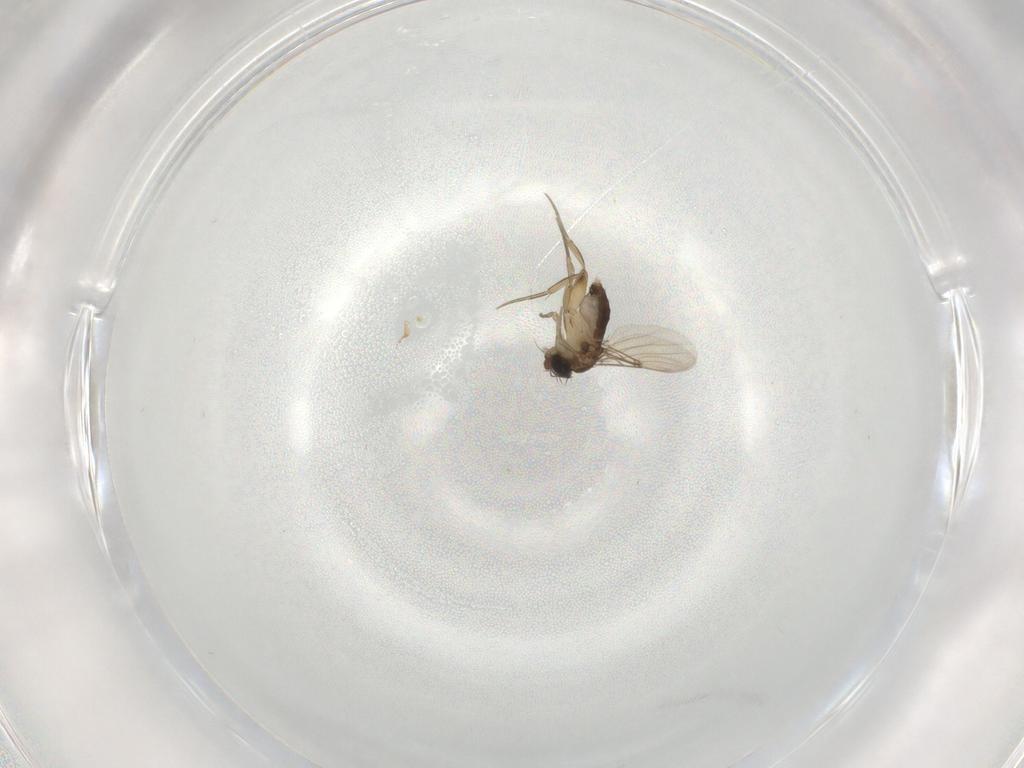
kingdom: Animalia
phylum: Arthropoda
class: Insecta
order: Diptera
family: Phoridae
